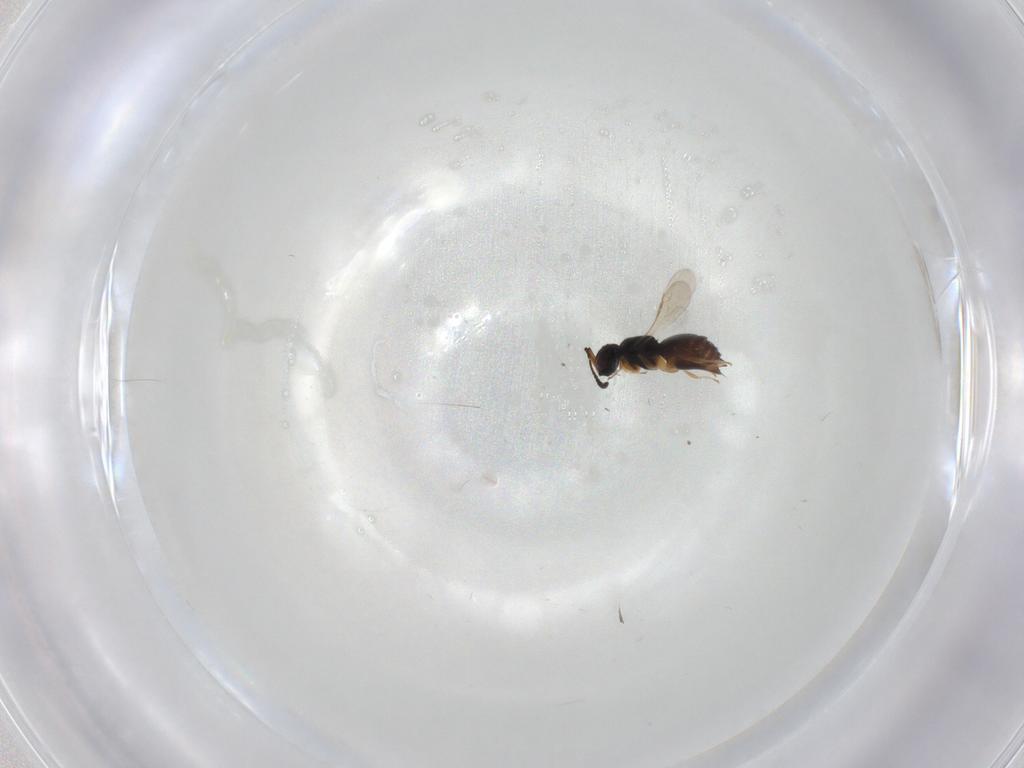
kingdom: Animalia
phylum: Arthropoda
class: Insecta
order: Hymenoptera
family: Ceraphronidae
